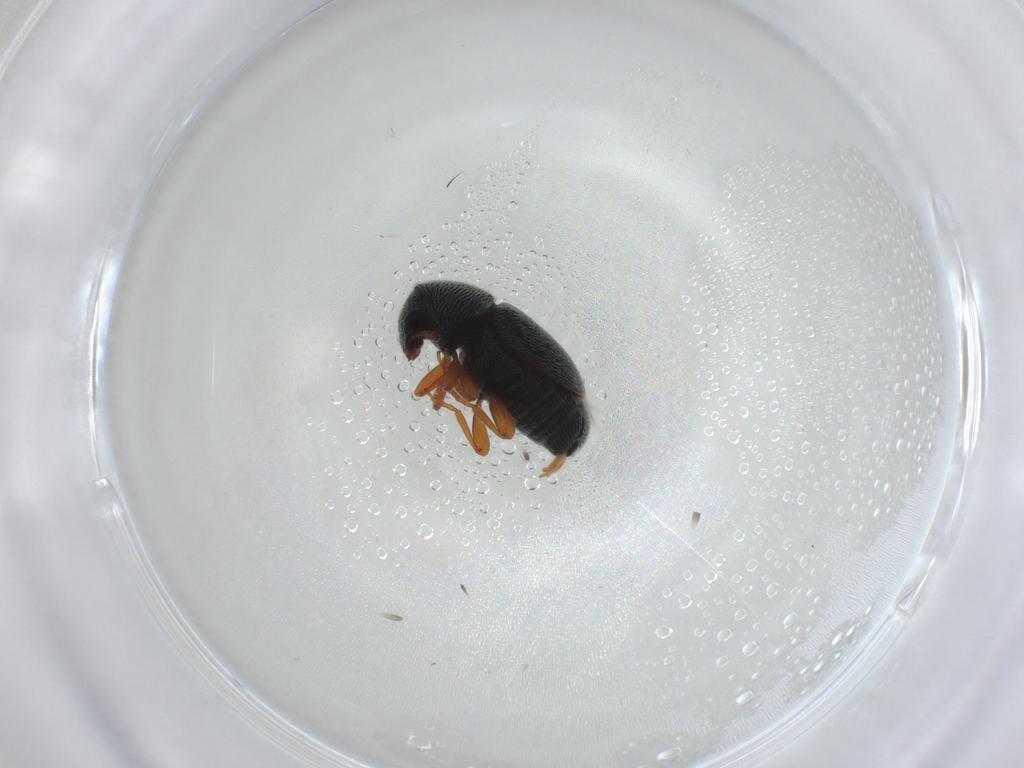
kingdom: Animalia
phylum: Arthropoda
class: Insecta
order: Coleoptera
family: Anthribidae
